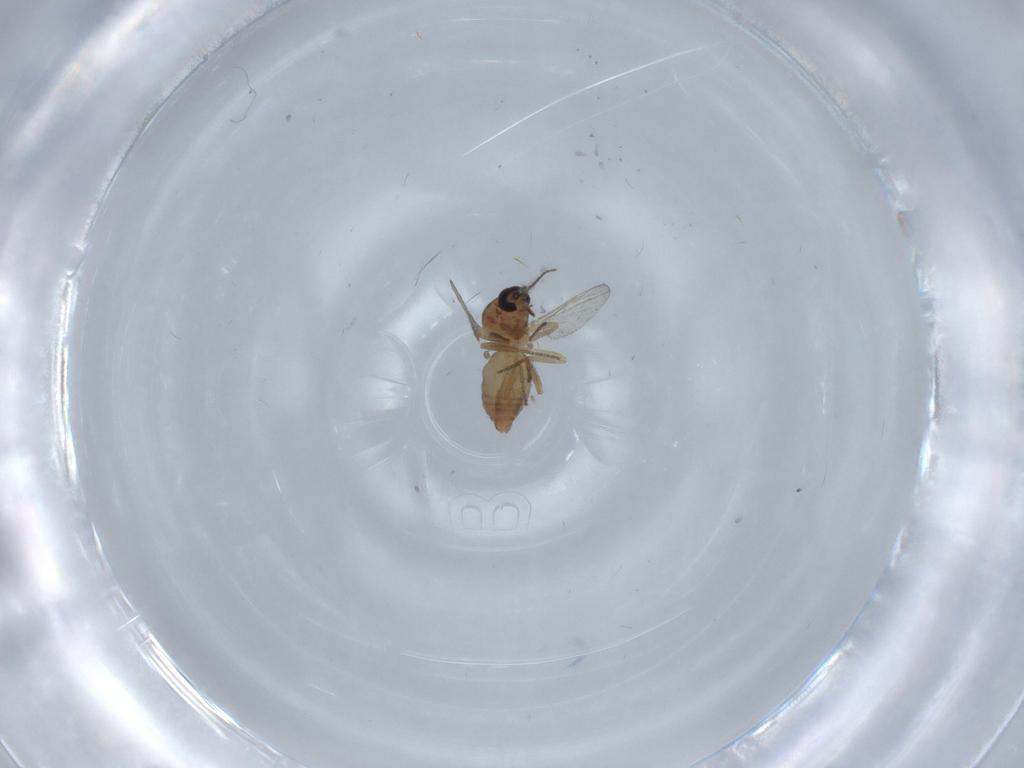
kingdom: Animalia
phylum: Arthropoda
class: Insecta
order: Diptera
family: Ceratopogonidae
